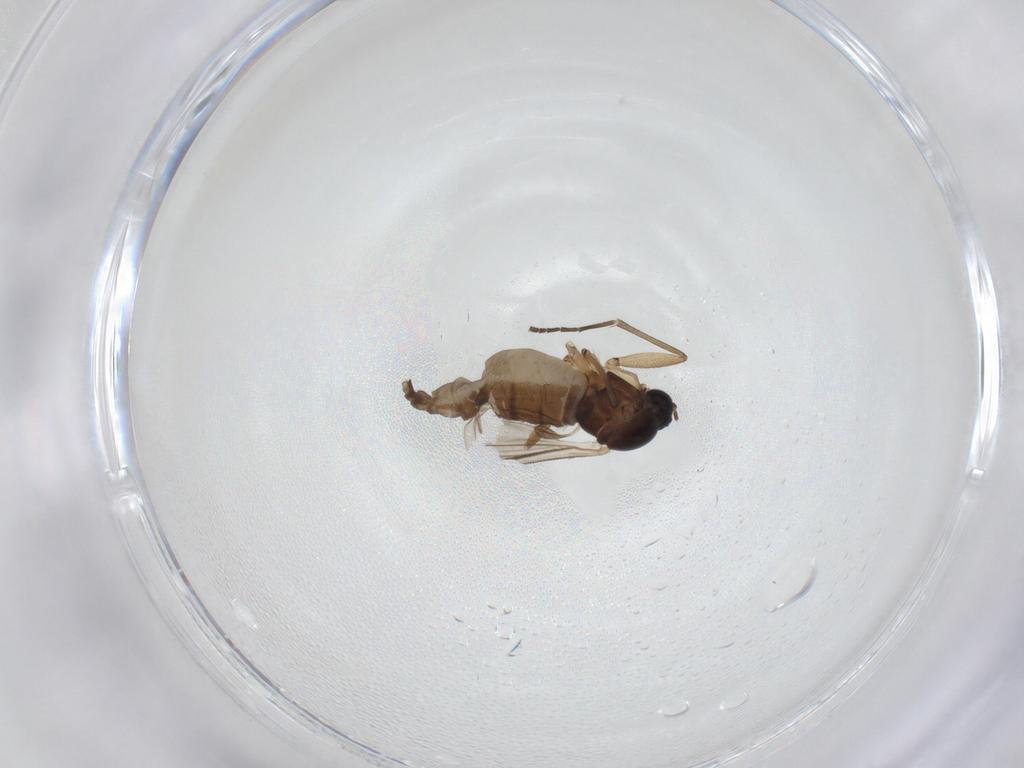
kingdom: Animalia
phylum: Arthropoda
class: Insecta
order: Diptera
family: Sciaridae
